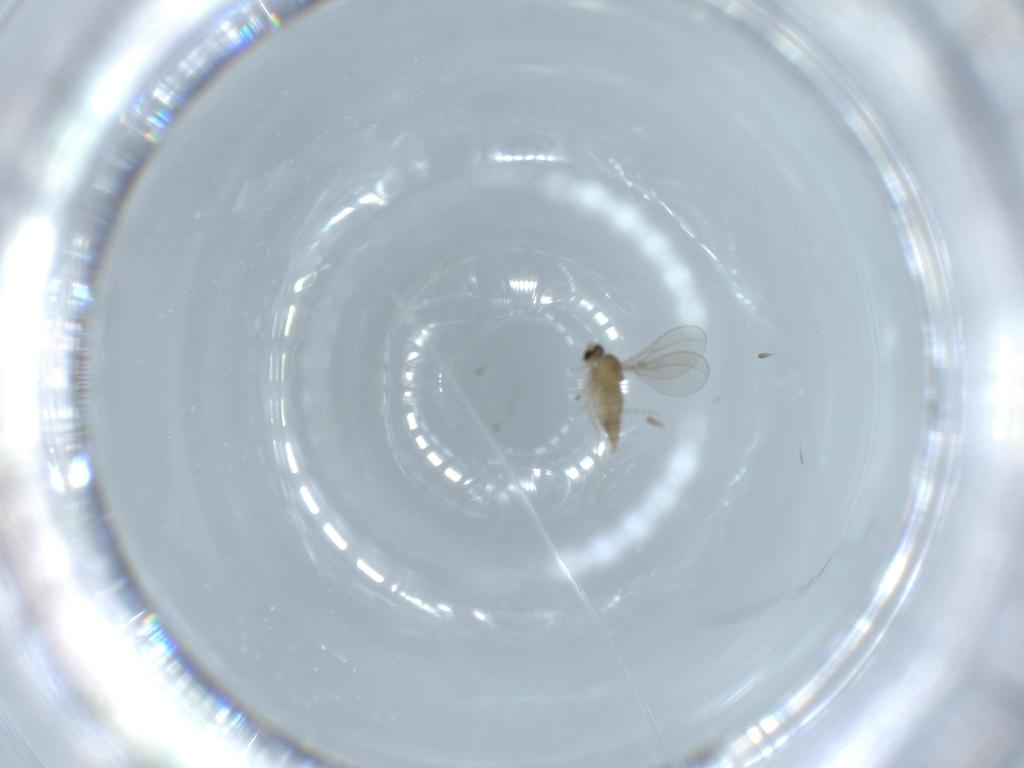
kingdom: Animalia
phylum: Arthropoda
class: Insecta
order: Diptera
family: Cecidomyiidae
